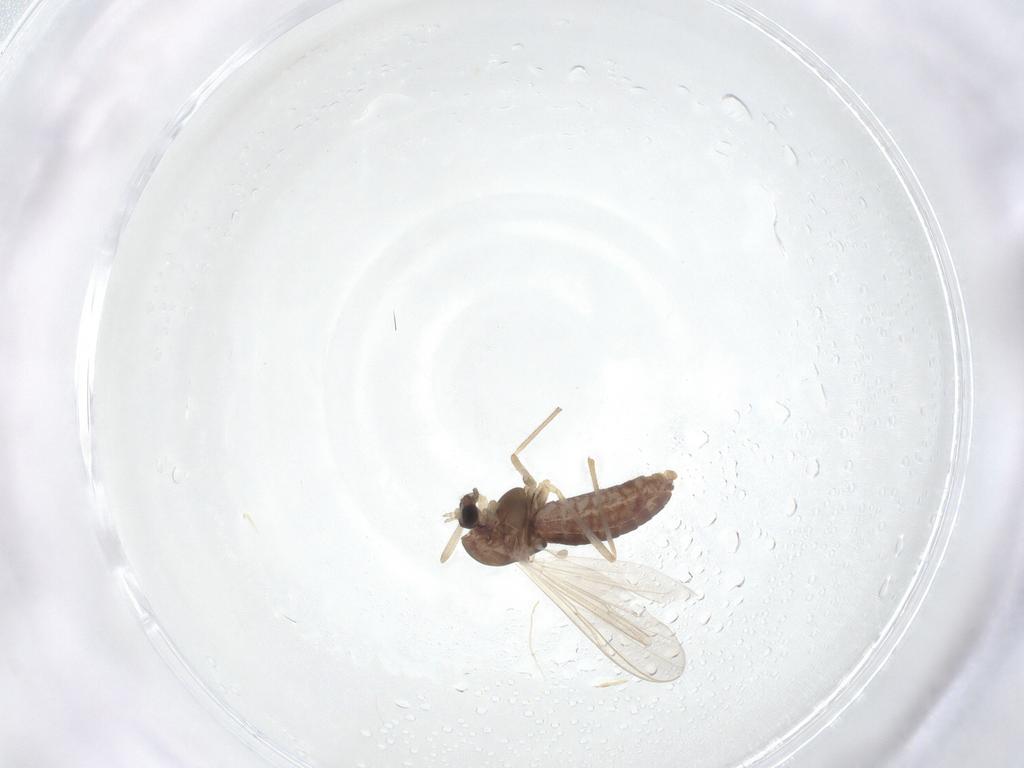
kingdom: Animalia
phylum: Arthropoda
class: Insecta
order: Diptera
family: Chironomidae
